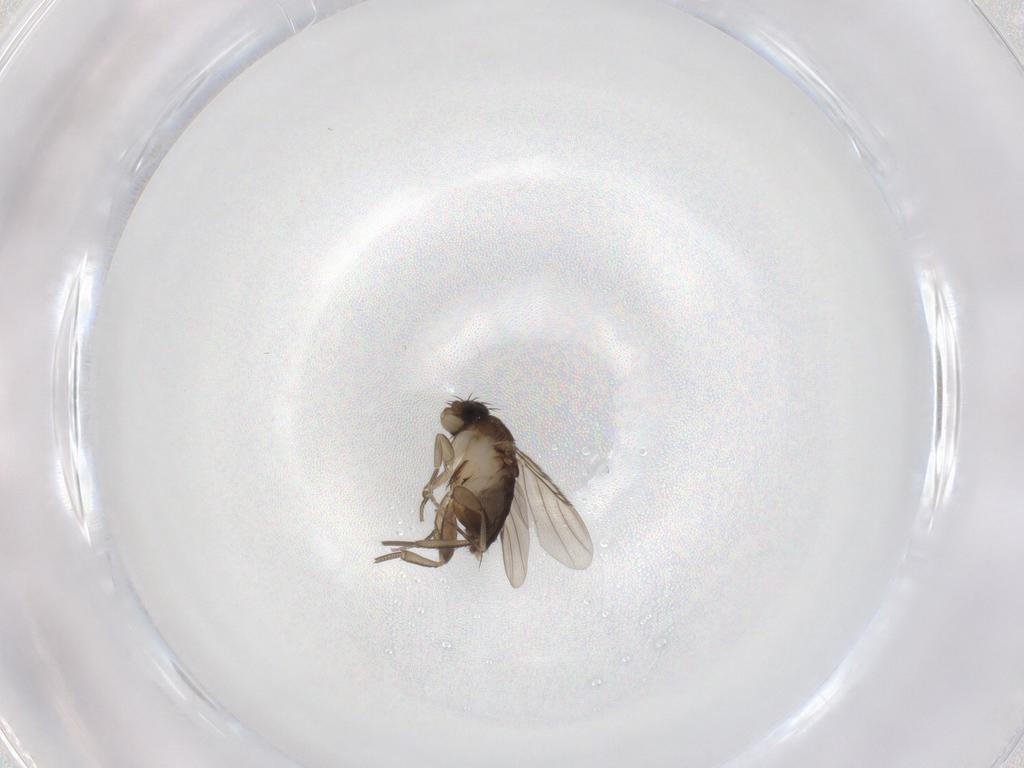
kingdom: Animalia
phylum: Arthropoda
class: Insecta
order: Diptera
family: Phoridae
